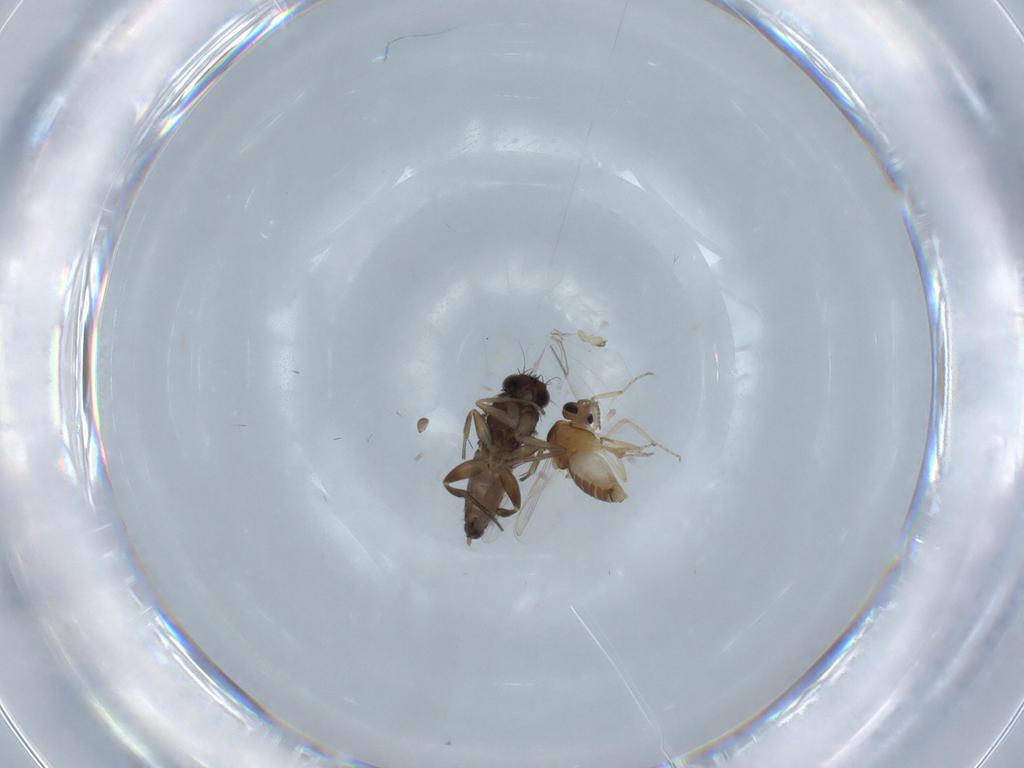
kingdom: Animalia
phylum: Arthropoda
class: Insecta
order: Diptera
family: Phoridae
